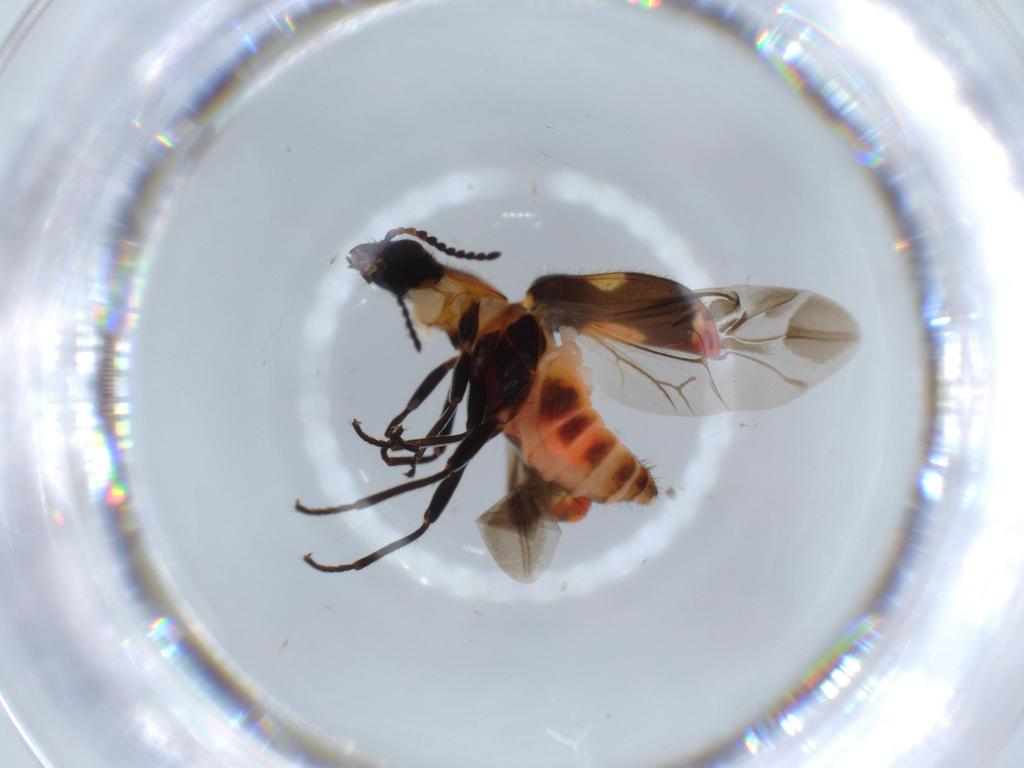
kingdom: Animalia
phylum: Arthropoda
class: Insecta
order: Coleoptera
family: Melyridae
